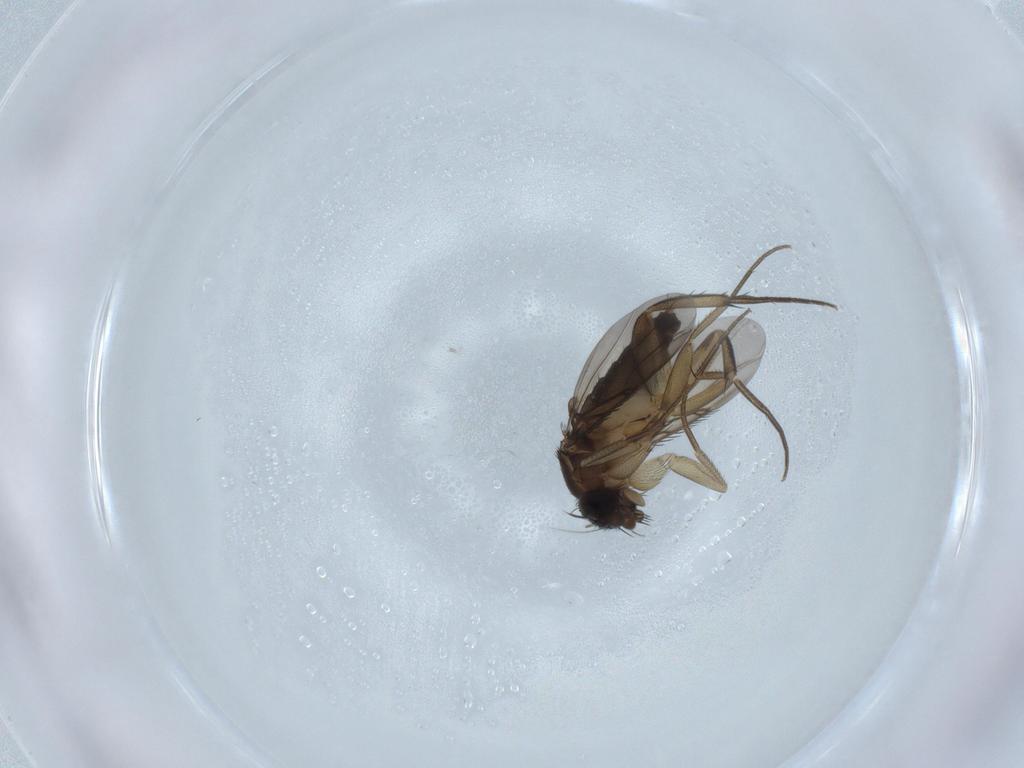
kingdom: Animalia
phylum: Arthropoda
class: Insecta
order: Diptera
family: Phoridae
